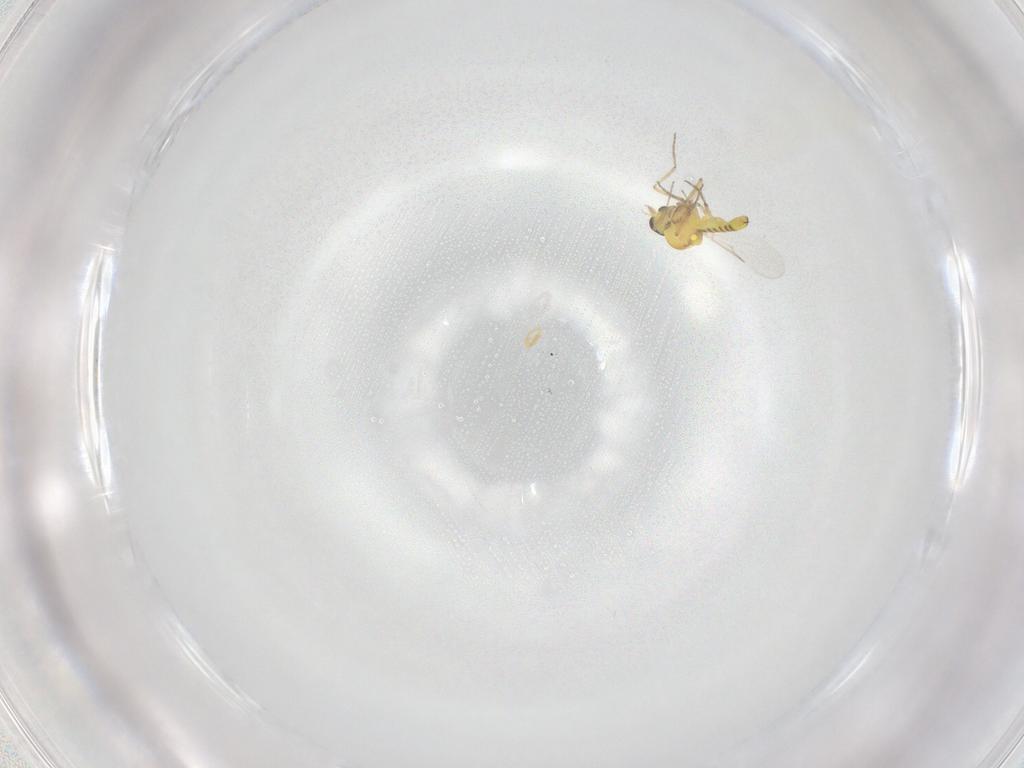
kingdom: Animalia
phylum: Arthropoda
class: Insecta
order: Diptera
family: Ceratopogonidae
